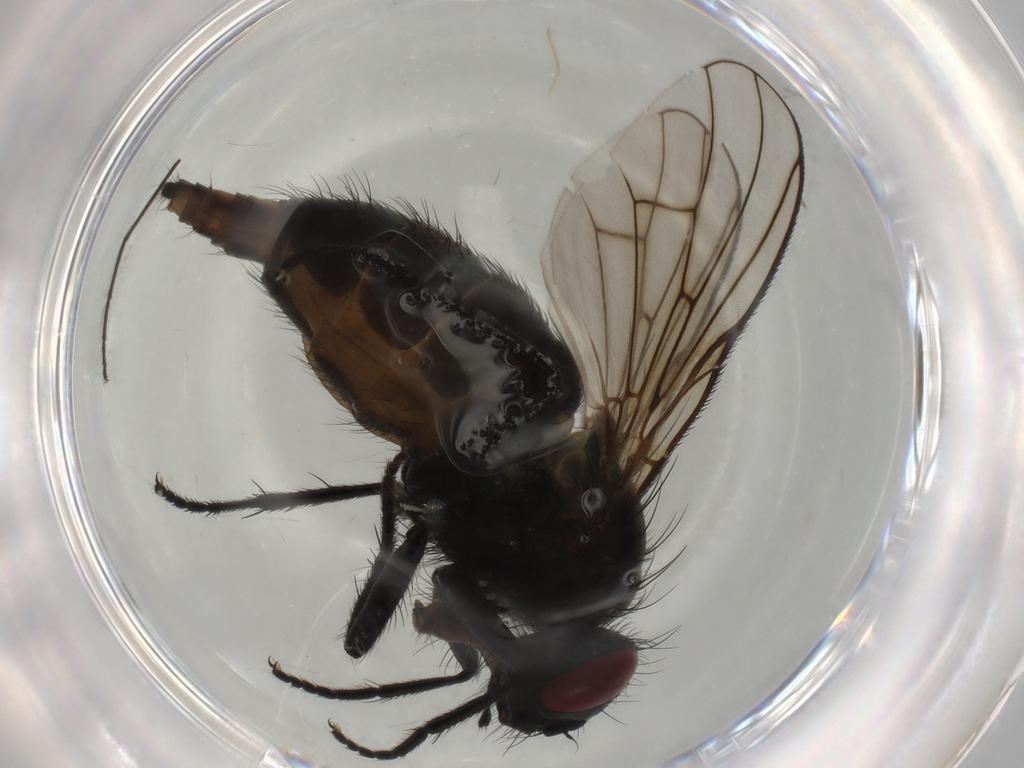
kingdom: Animalia
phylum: Arthropoda
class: Insecta
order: Diptera
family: Muscidae
